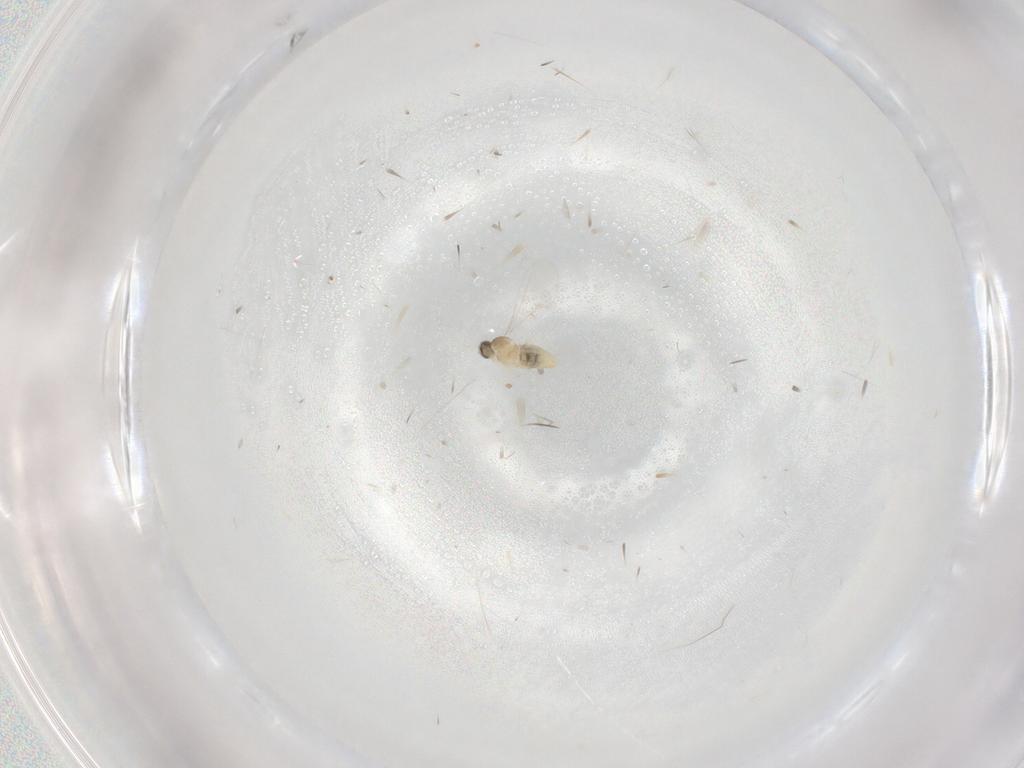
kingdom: Animalia
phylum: Arthropoda
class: Insecta
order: Diptera
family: Cecidomyiidae
